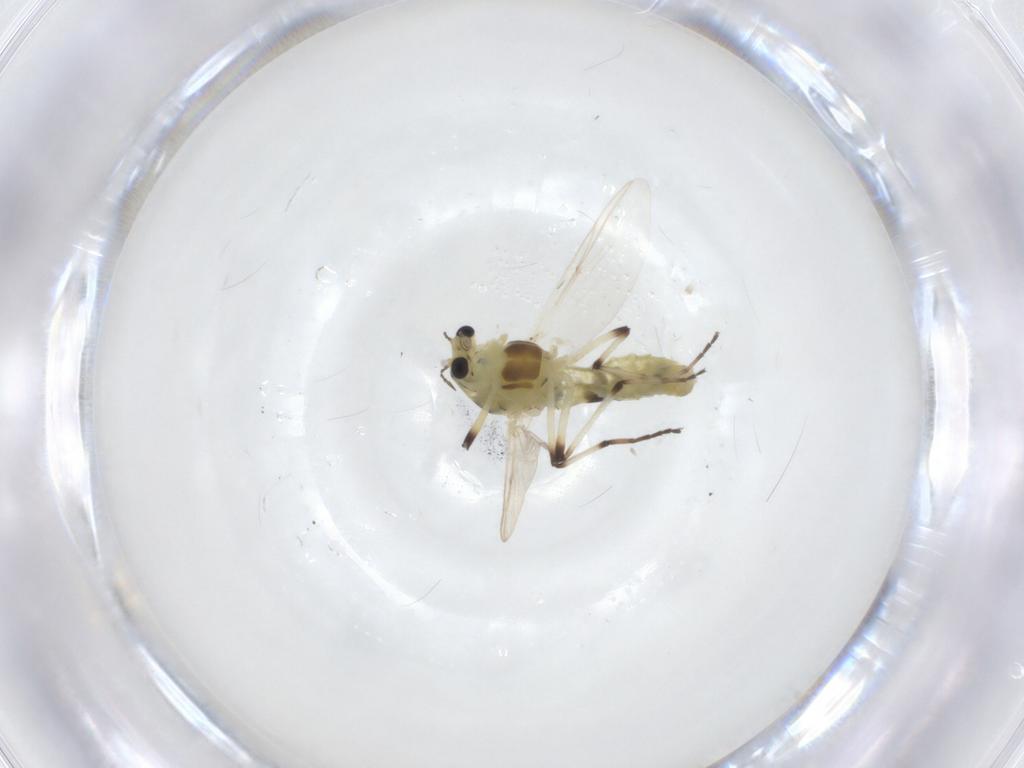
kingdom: Animalia
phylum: Arthropoda
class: Insecta
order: Diptera
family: Chironomidae
